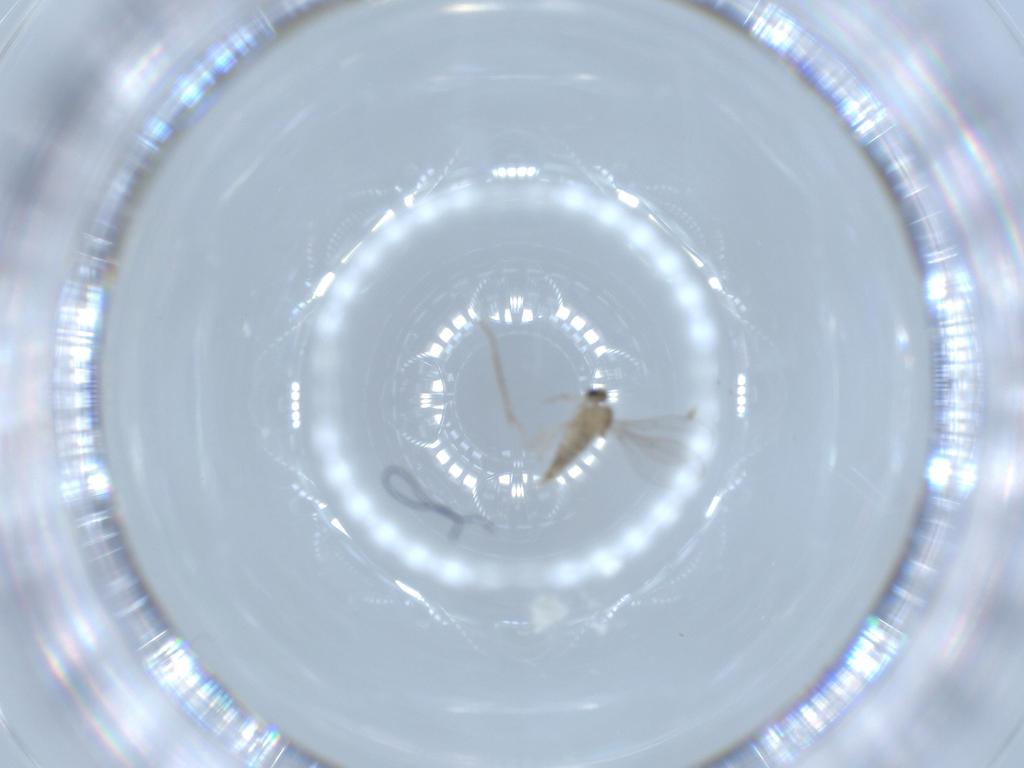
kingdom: Animalia
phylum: Arthropoda
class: Insecta
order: Diptera
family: Cecidomyiidae
